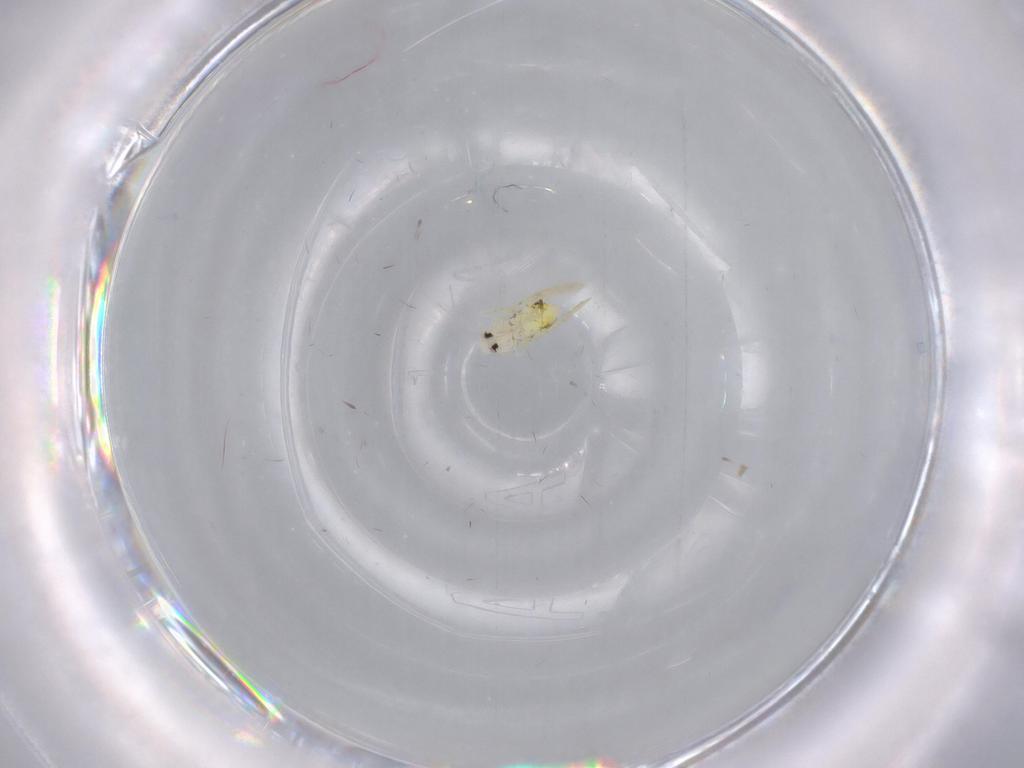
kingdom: Animalia
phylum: Arthropoda
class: Insecta
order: Hemiptera
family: Aleyrodidae
